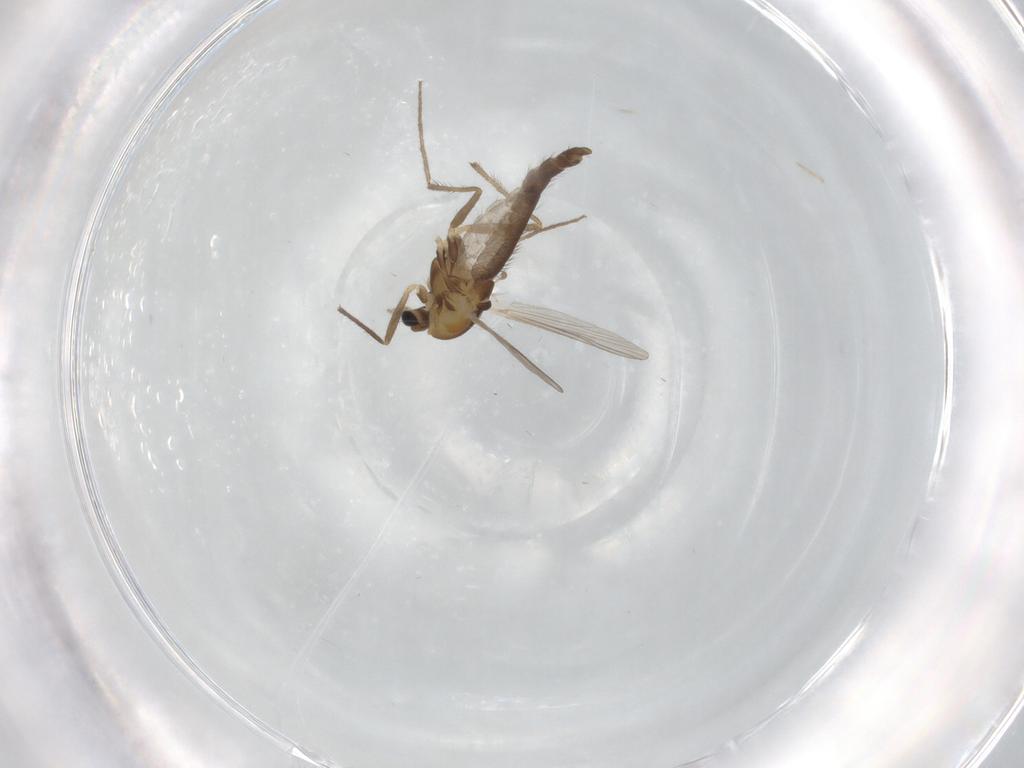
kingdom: Animalia
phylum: Arthropoda
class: Insecta
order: Diptera
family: Chironomidae
